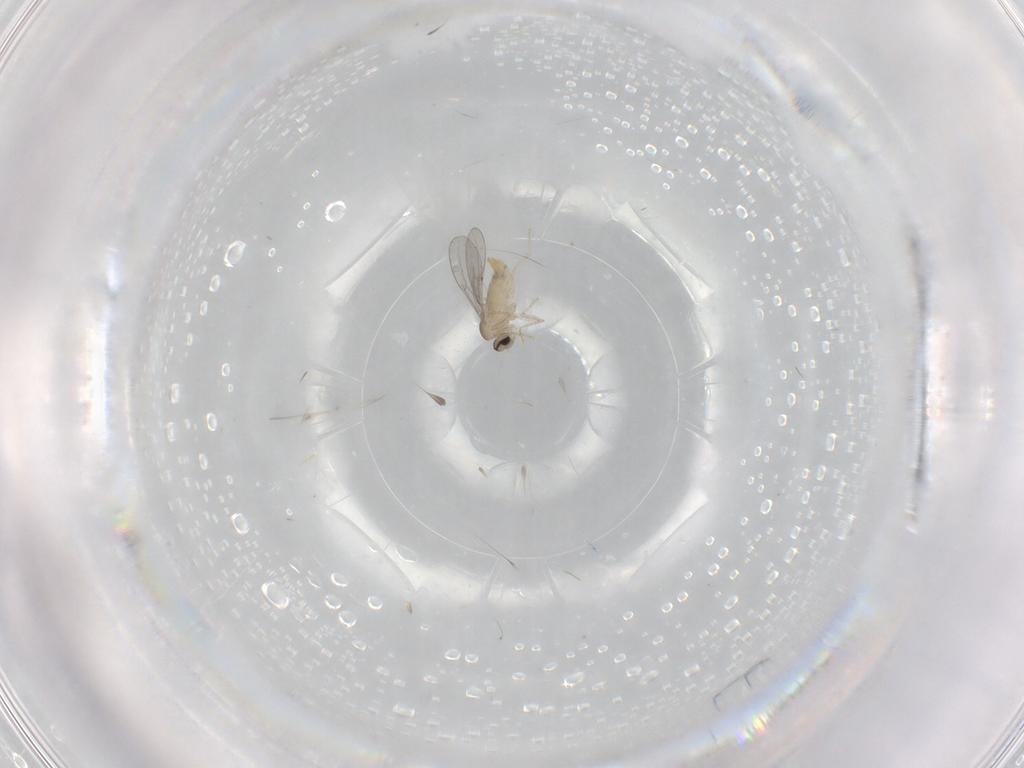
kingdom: Animalia
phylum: Arthropoda
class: Insecta
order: Diptera
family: Cecidomyiidae
